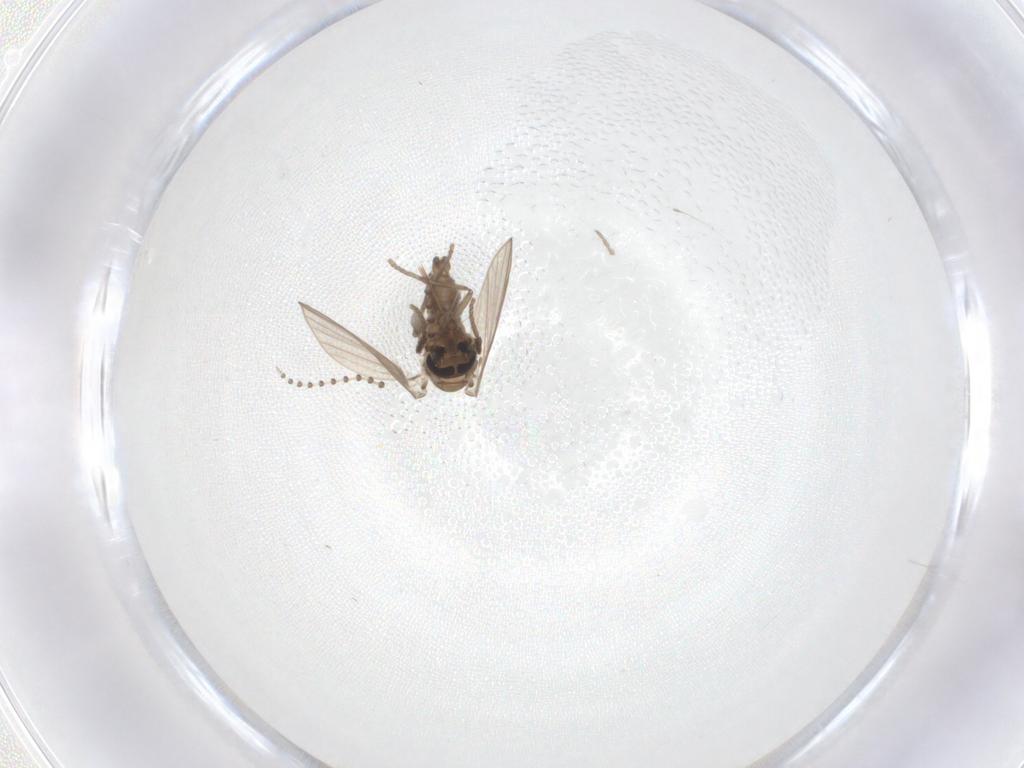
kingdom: Animalia
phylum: Arthropoda
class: Insecta
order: Diptera
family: Psychodidae
